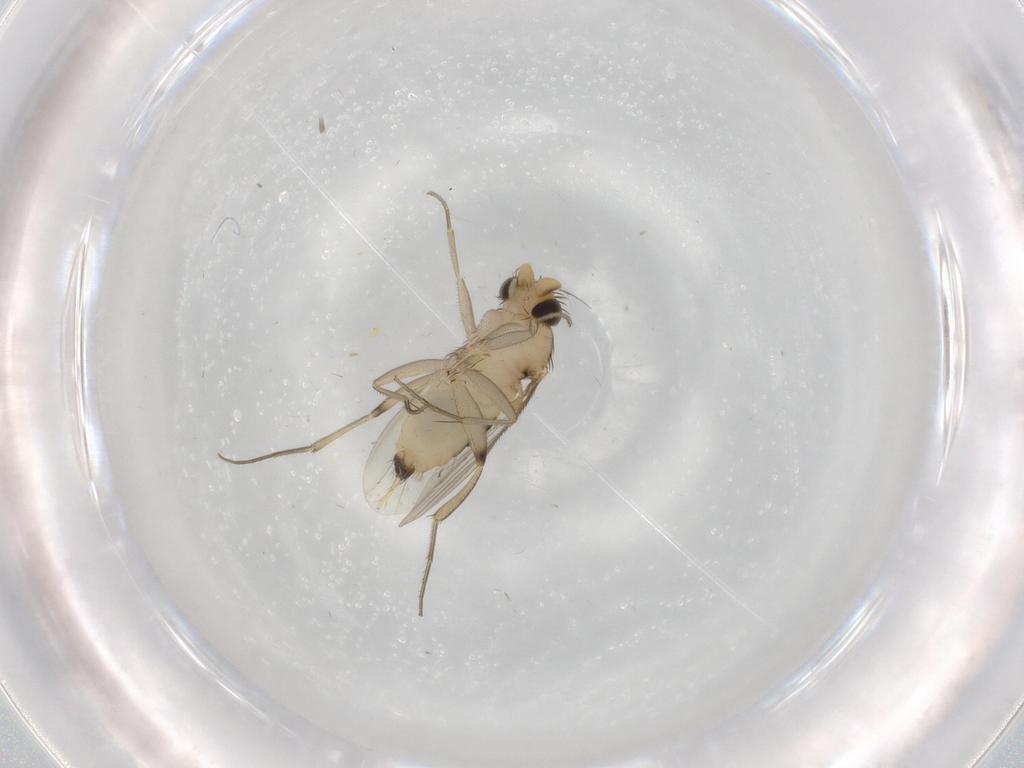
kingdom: Animalia
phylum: Arthropoda
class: Insecta
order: Diptera
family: Phoridae
